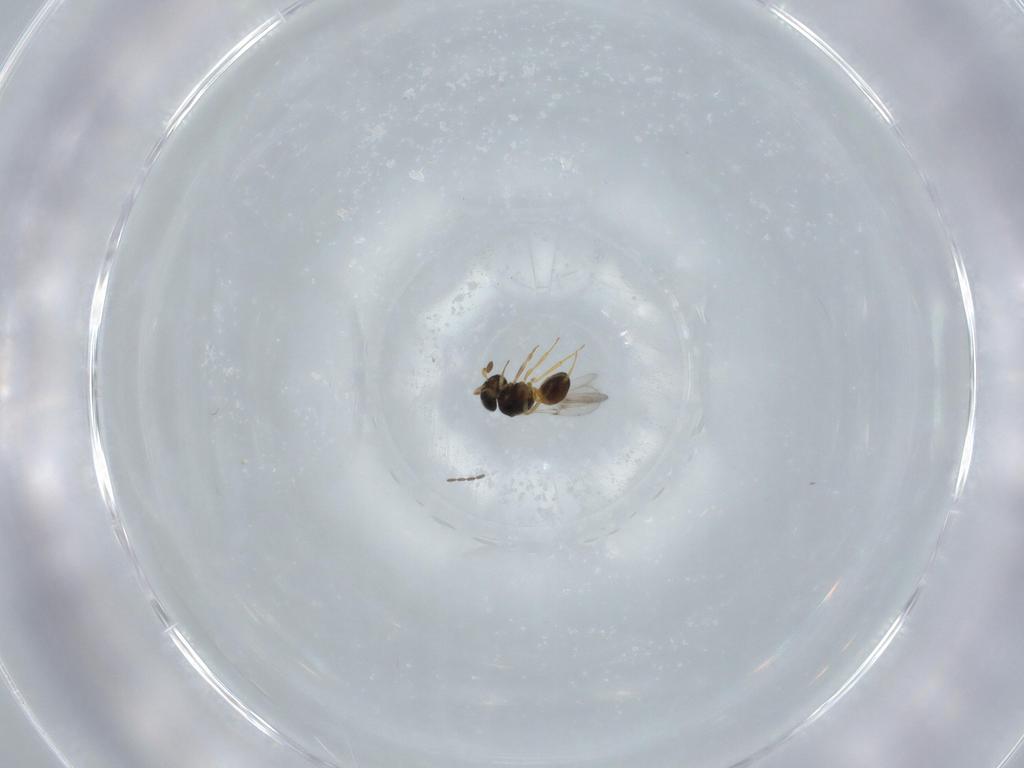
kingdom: Animalia
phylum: Arthropoda
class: Insecta
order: Hymenoptera
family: Scelionidae
